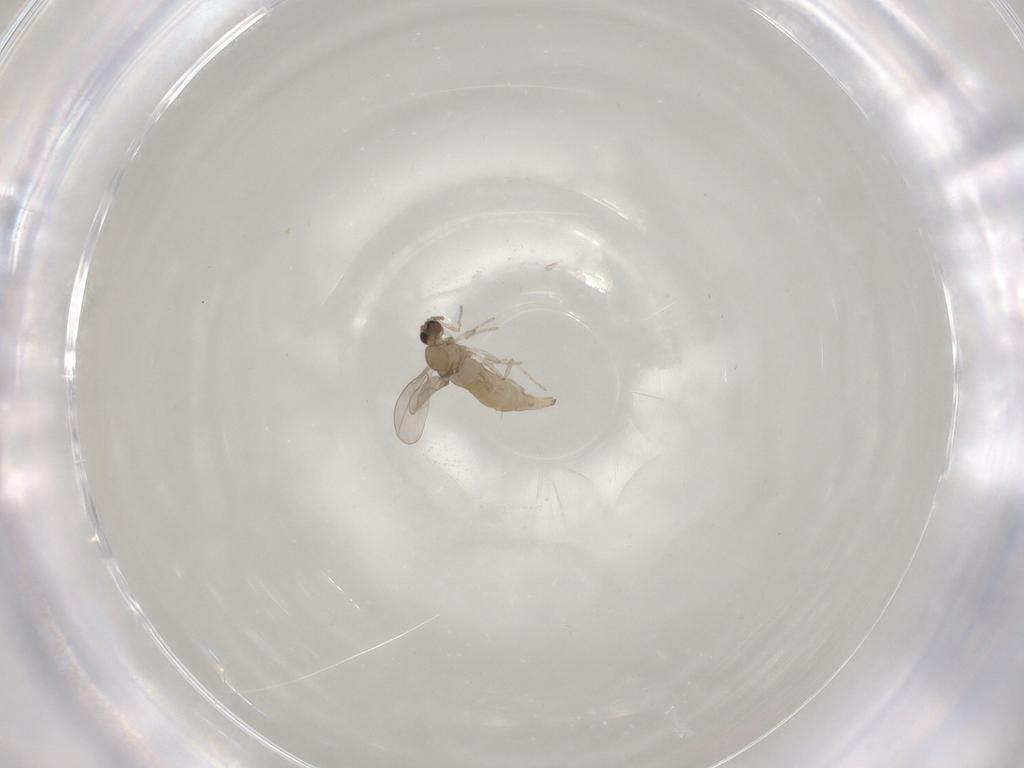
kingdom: Animalia
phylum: Arthropoda
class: Insecta
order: Diptera
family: Cecidomyiidae
